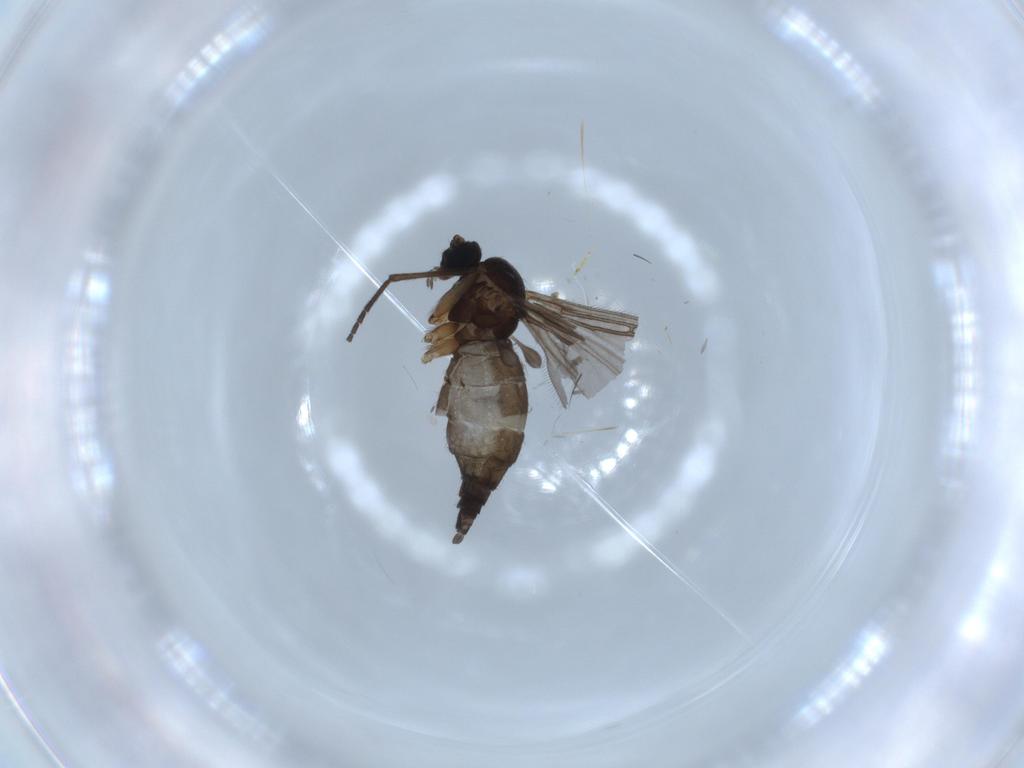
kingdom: Animalia
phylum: Arthropoda
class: Insecta
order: Diptera
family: Sciaridae
